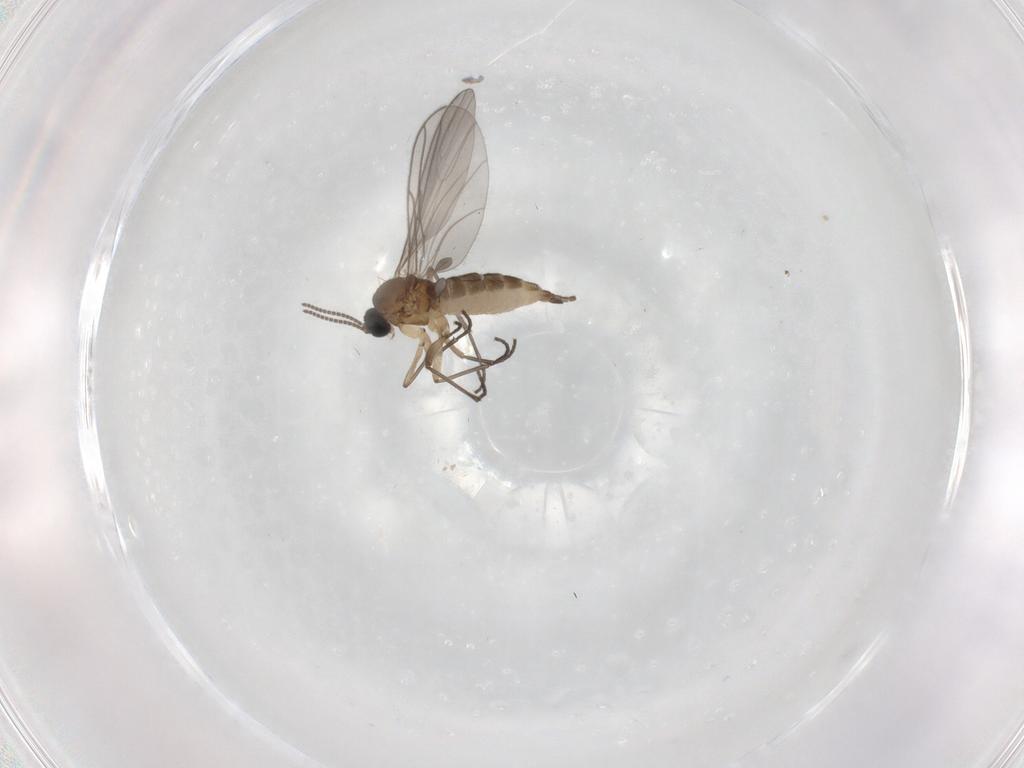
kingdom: Animalia
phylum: Arthropoda
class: Insecta
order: Diptera
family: Sciaridae
